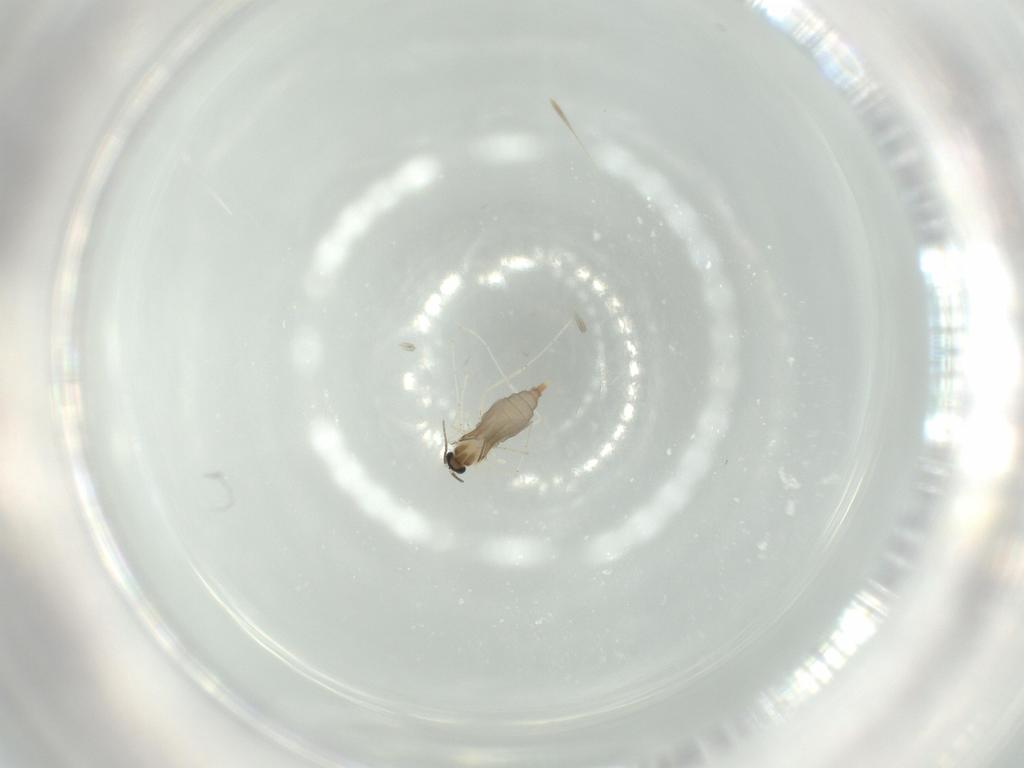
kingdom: Animalia
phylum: Arthropoda
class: Insecta
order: Diptera
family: Cecidomyiidae
